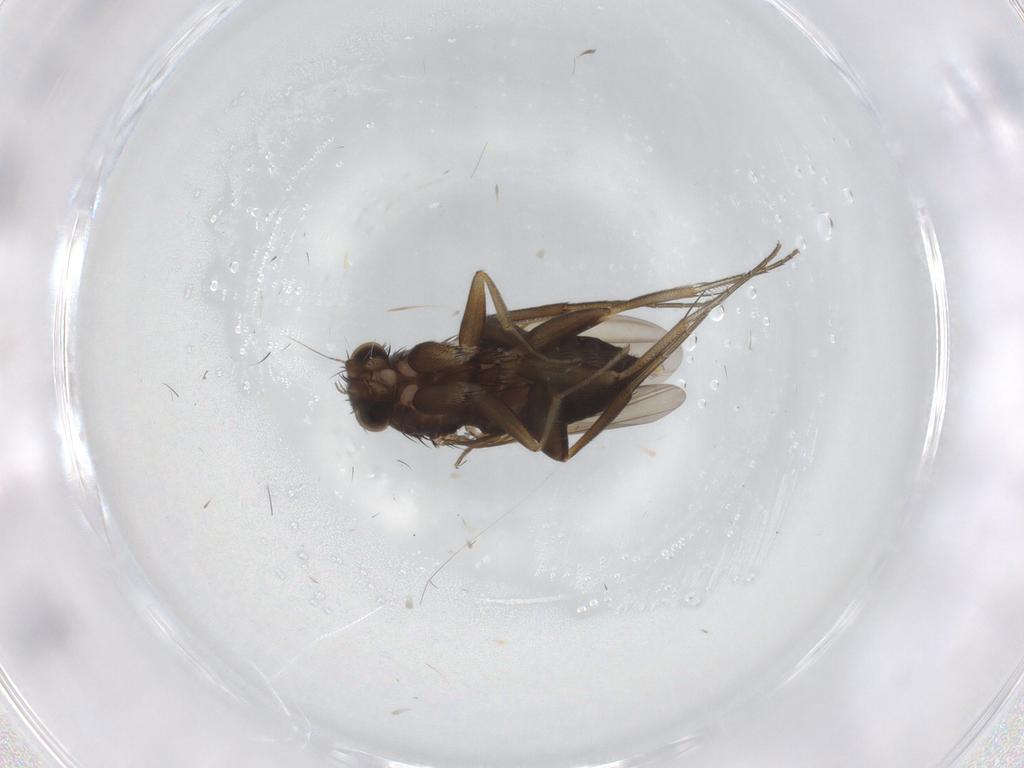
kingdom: Animalia
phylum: Arthropoda
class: Insecta
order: Diptera
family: Phoridae
